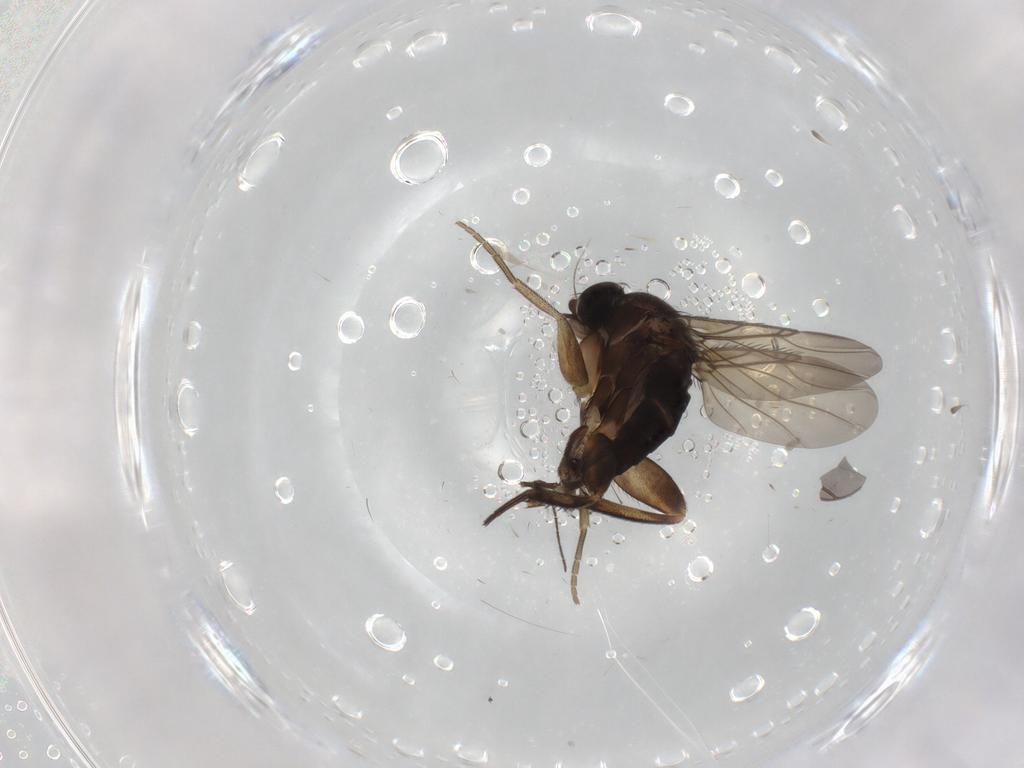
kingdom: Animalia
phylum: Arthropoda
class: Insecta
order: Diptera
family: Phoridae
